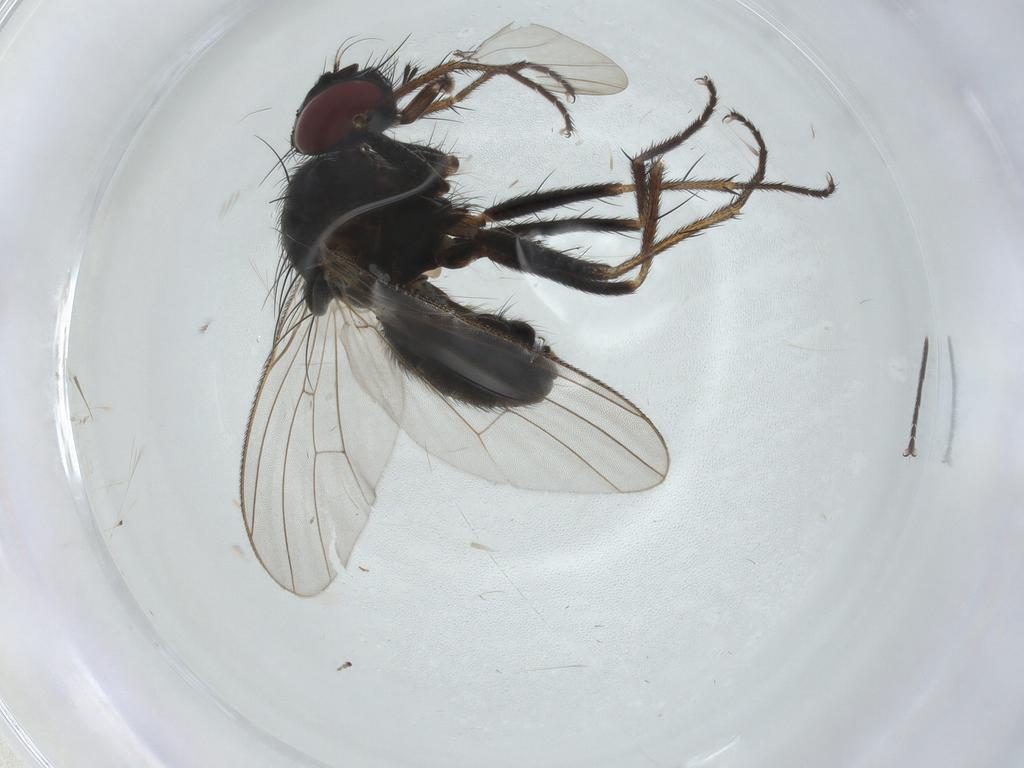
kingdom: Animalia
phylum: Arthropoda
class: Insecta
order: Diptera
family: Muscidae
